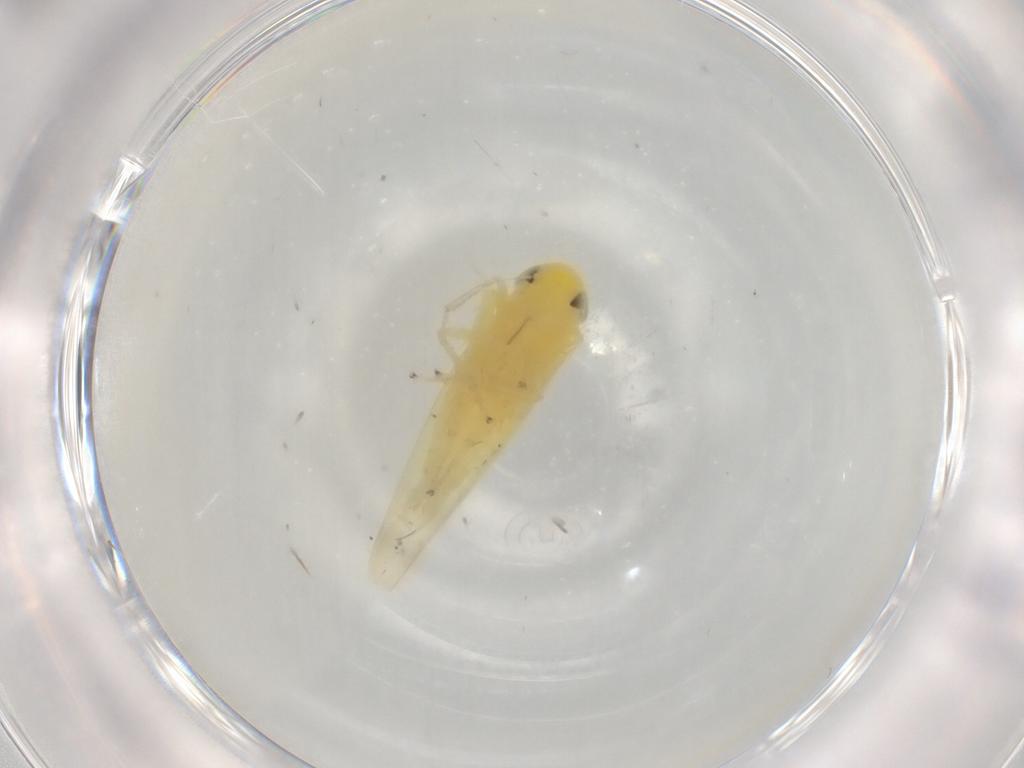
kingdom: Animalia
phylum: Arthropoda
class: Insecta
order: Hemiptera
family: Cicadellidae
